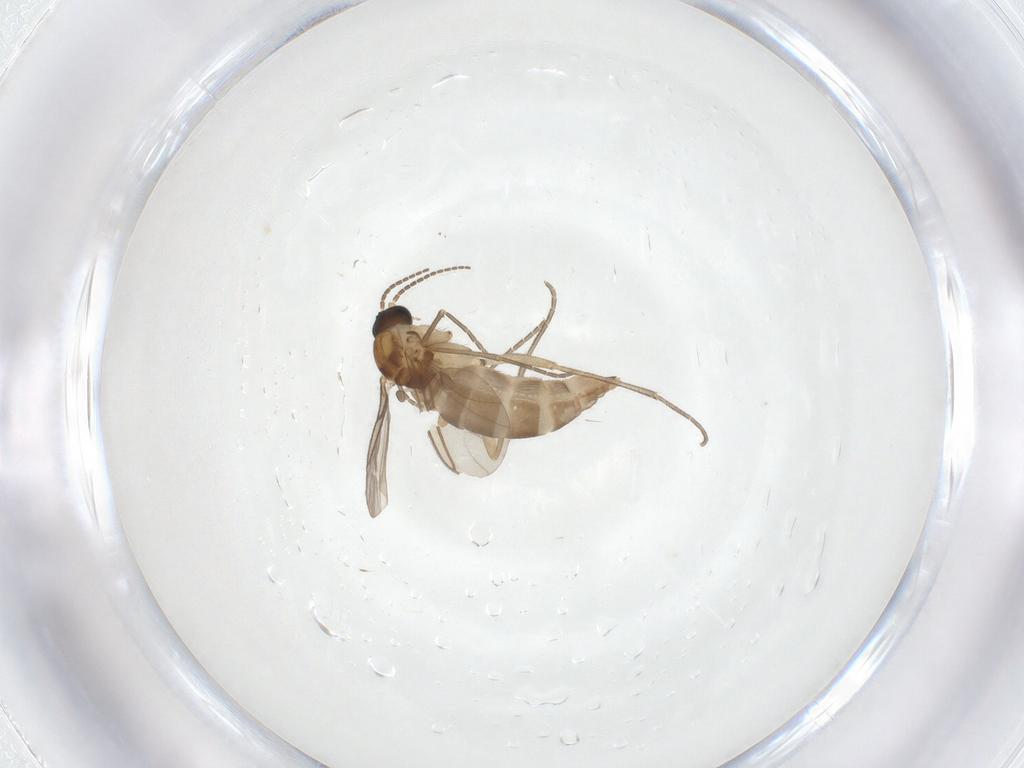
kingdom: Animalia
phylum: Arthropoda
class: Insecta
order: Diptera
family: Sciaridae
